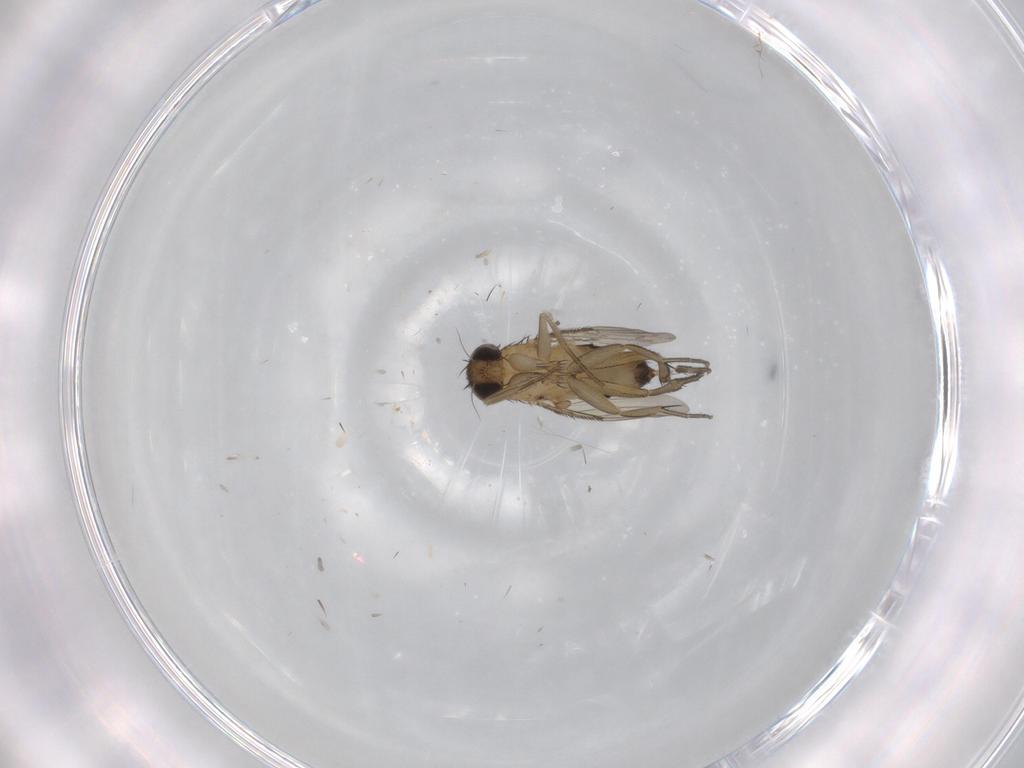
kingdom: Animalia
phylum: Arthropoda
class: Insecta
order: Diptera
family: Phoridae
